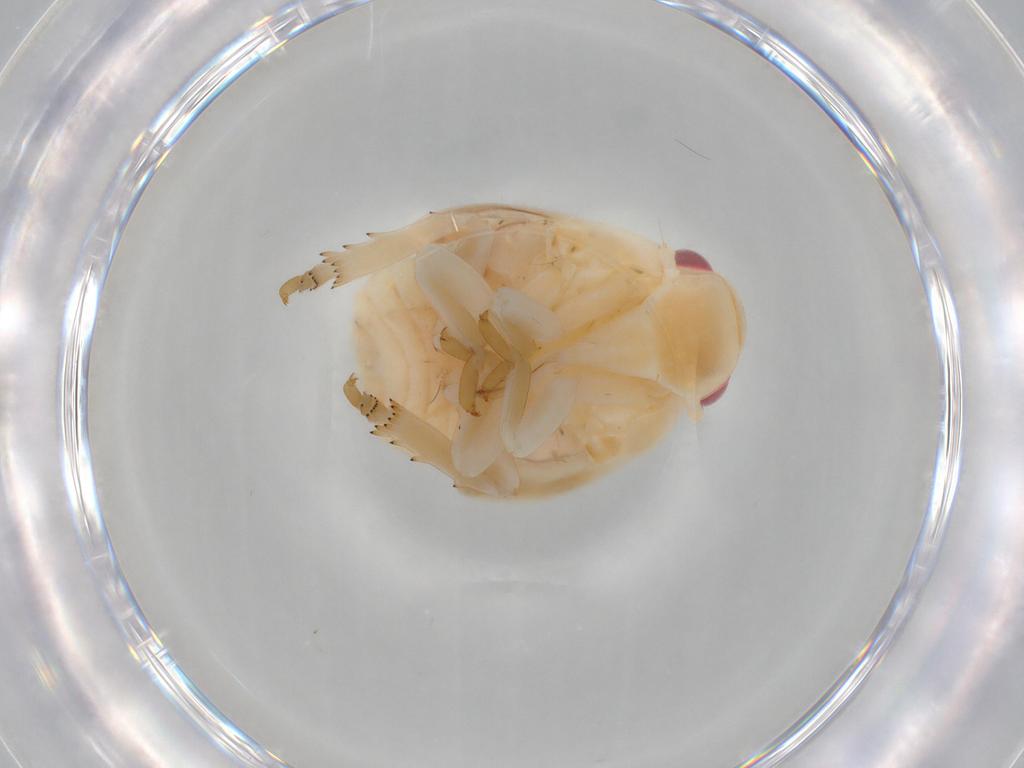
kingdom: Animalia
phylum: Arthropoda
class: Insecta
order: Hemiptera
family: Flatidae
